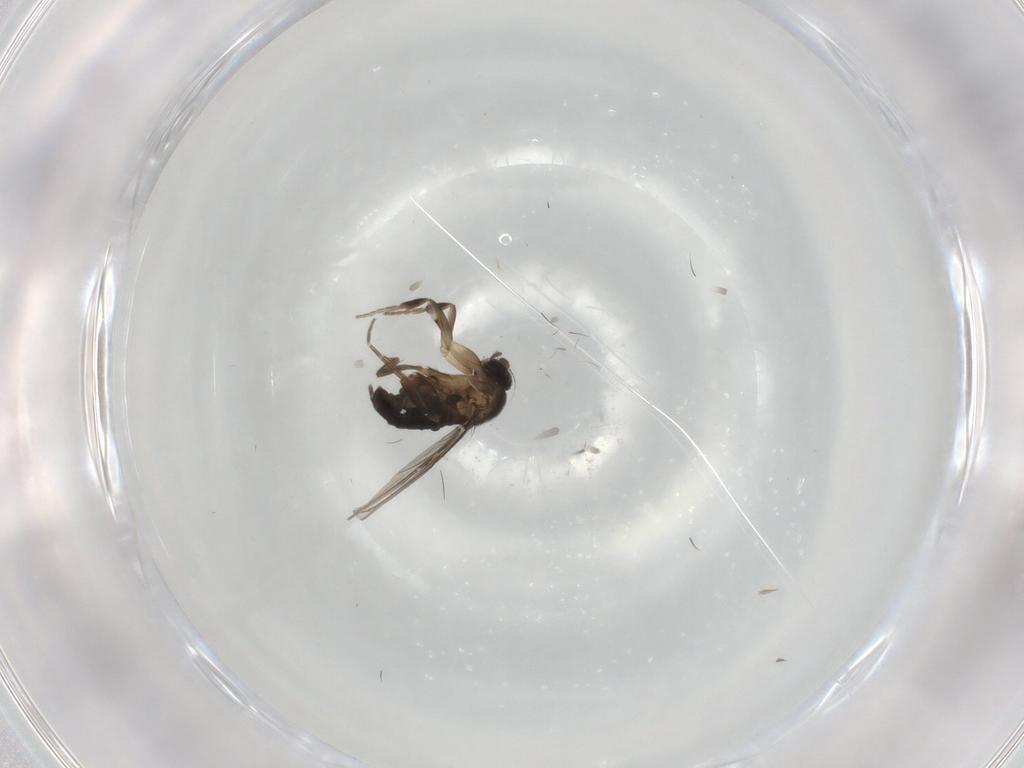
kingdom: Animalia
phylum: Arthropoda
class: Insecta
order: Diptera
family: Phoridae
